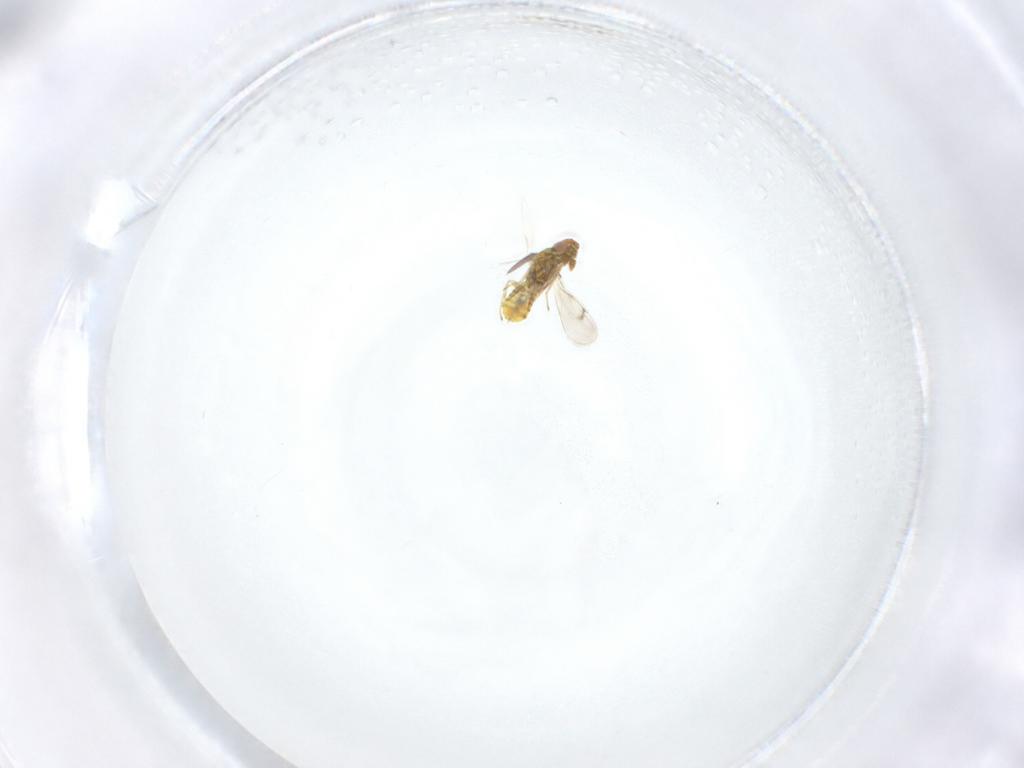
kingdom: Animalia
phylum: Arthropoda
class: Insecta
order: Hymenoptera
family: Eulophidae
